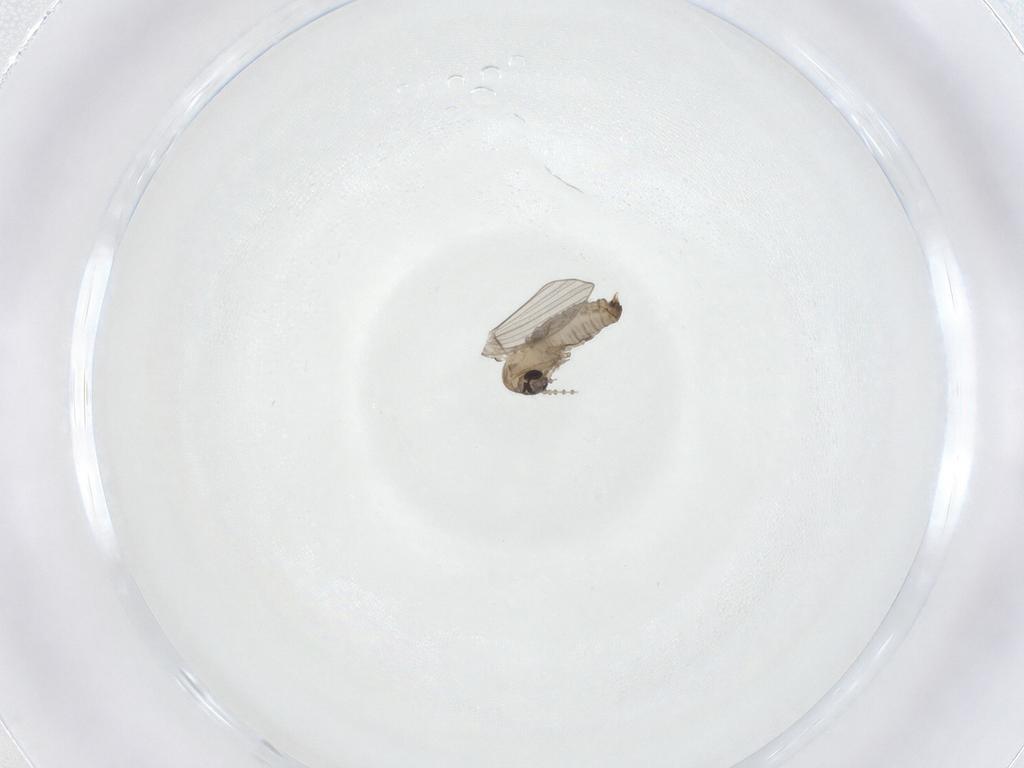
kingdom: Animalia
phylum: Arthropoda
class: Insecta
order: Diptera
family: Psychodidae
